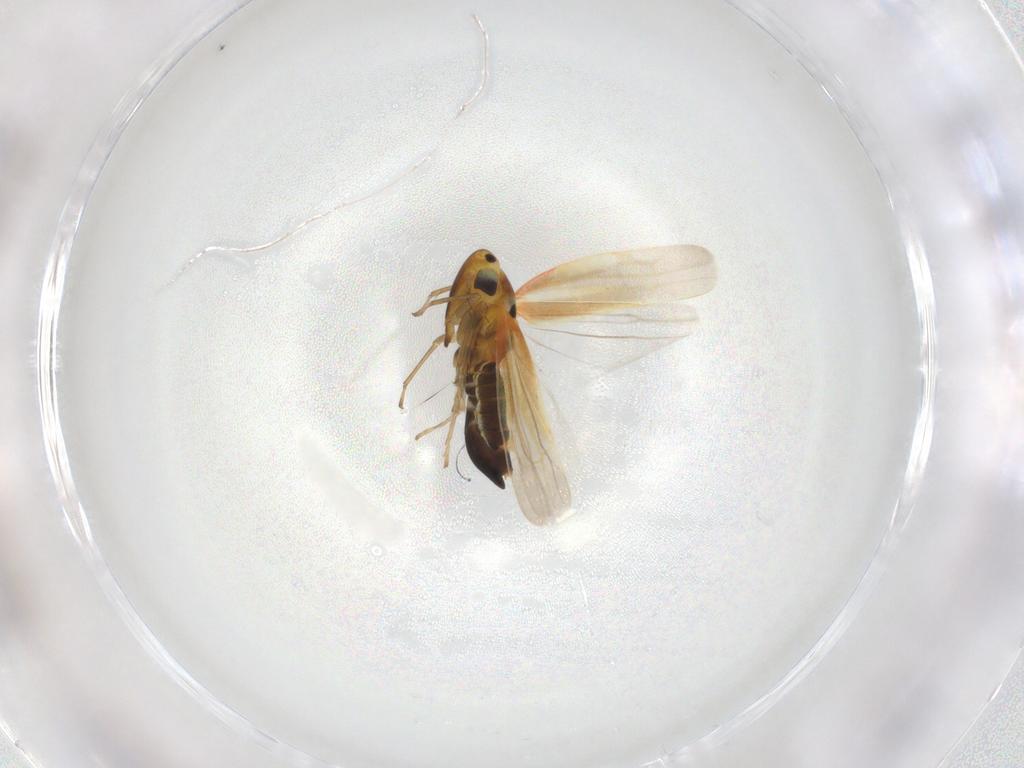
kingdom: Animalia
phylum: Arthropoda
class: Insecta
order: Hemiptera
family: Cicadellidae
